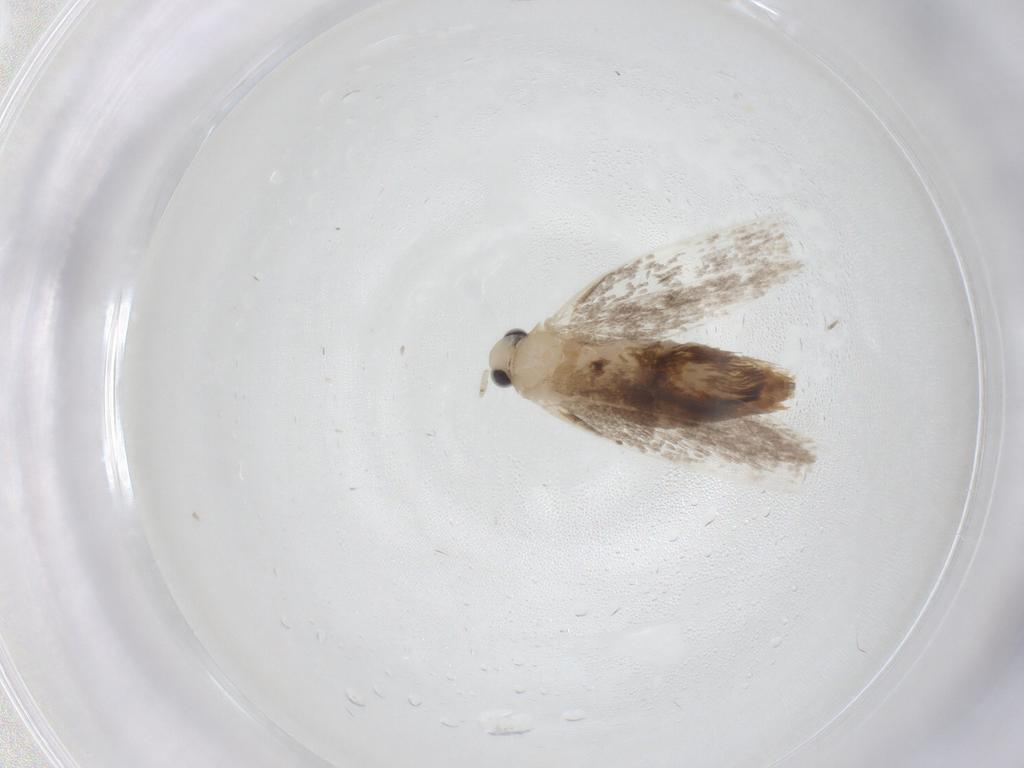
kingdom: Animalia
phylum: Arthropoda
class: Insecta
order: Lepidoptera
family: Dryadaulidae
